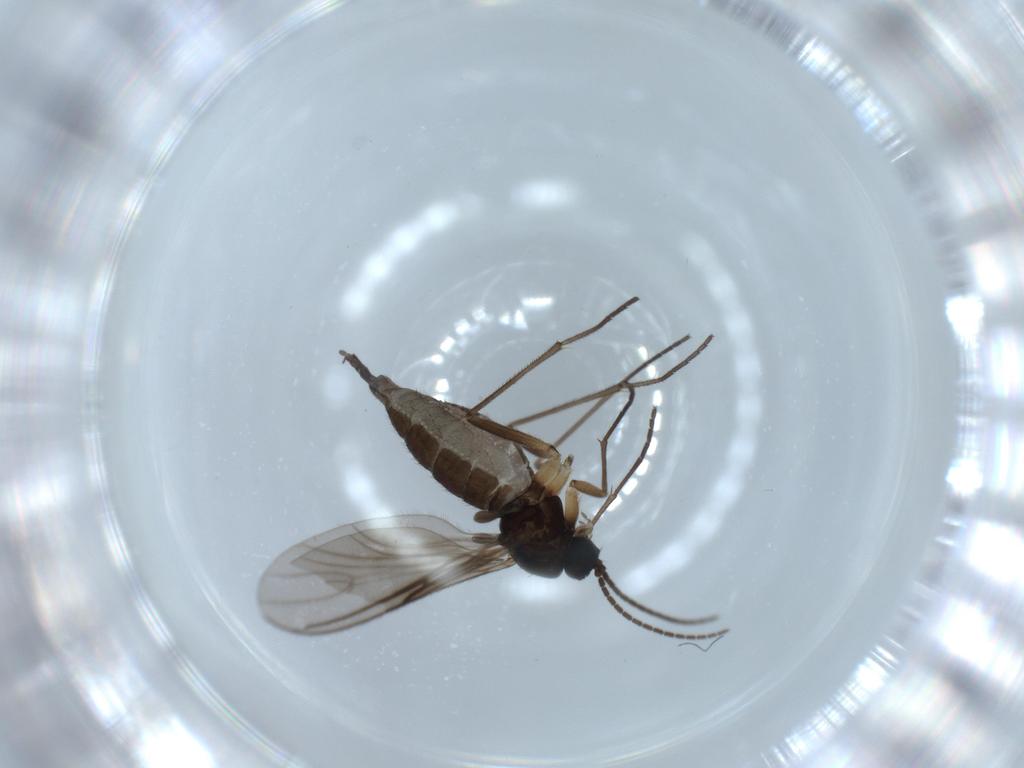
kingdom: Animalia
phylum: Arthropoda
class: Insecta
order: Diptera
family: Sciaridae
